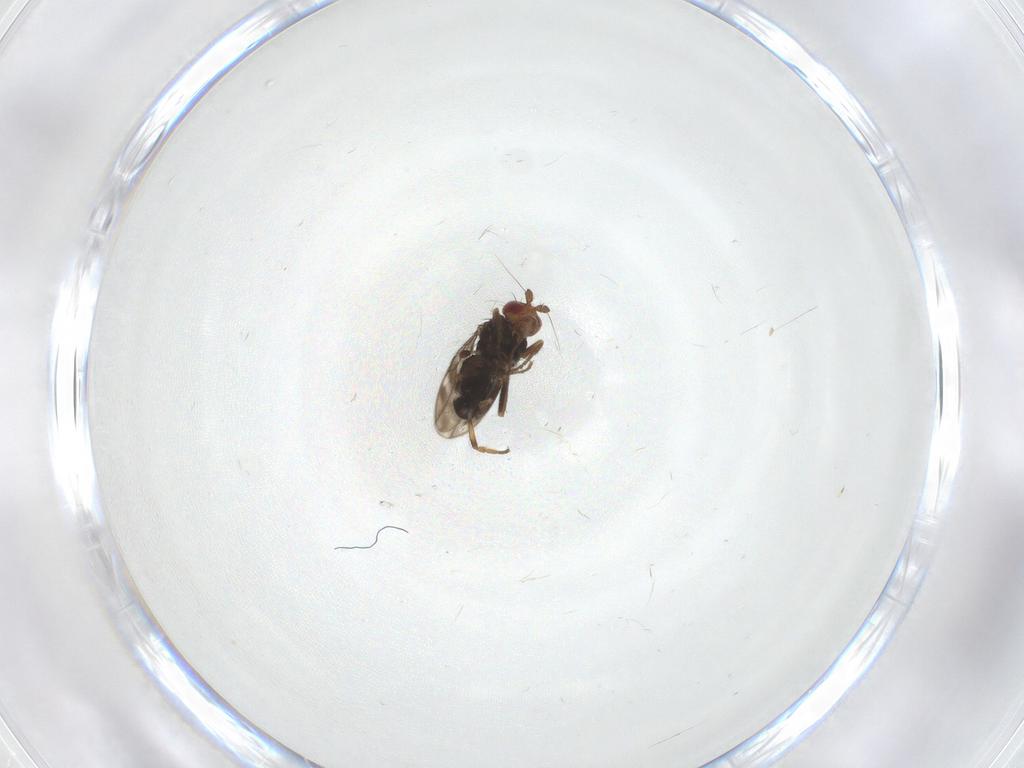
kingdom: Animalia
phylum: Arthropoda
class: Insecta
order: Diptera
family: Sphaeroceridae
